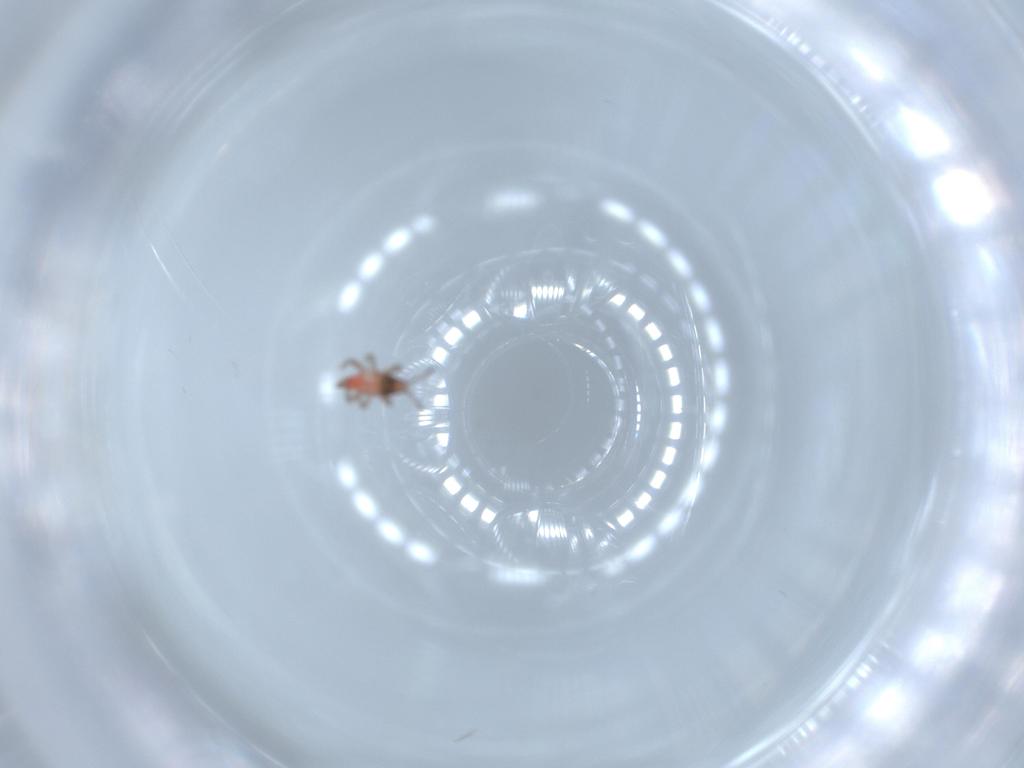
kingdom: Animalia
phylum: Arthropoda
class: Insecta
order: Thysanoptera
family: Phlaeothripidae
